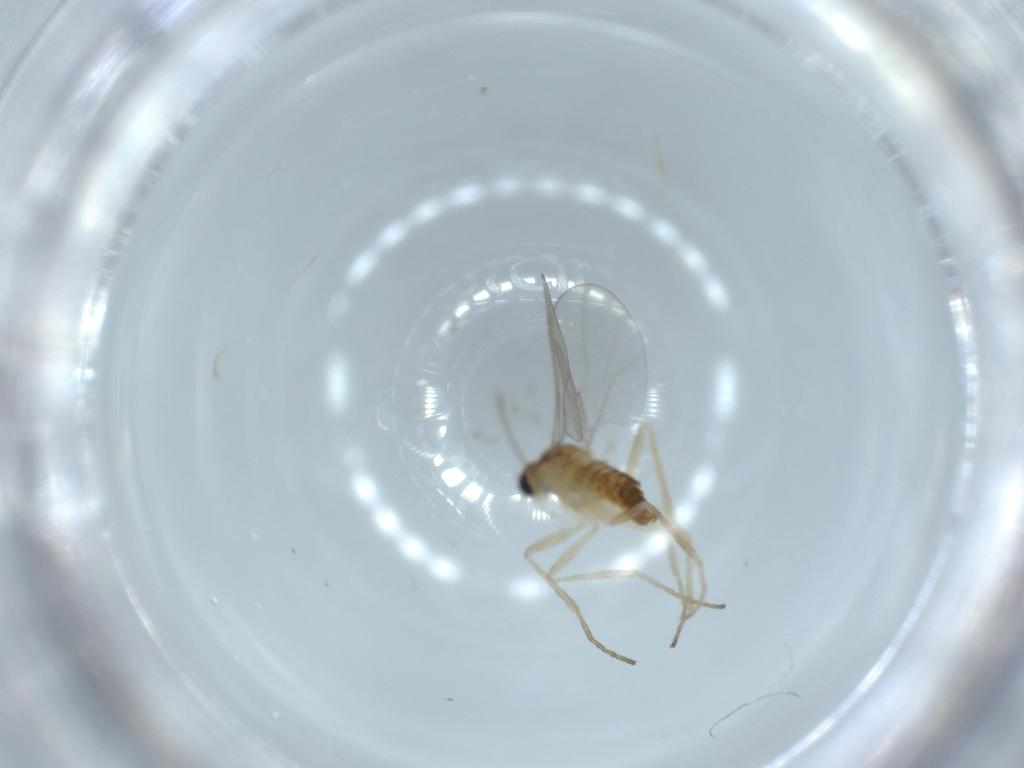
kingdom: Animalia
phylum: Arthropoda
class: Insecta
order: Diptera
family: Cecidomyiidae
